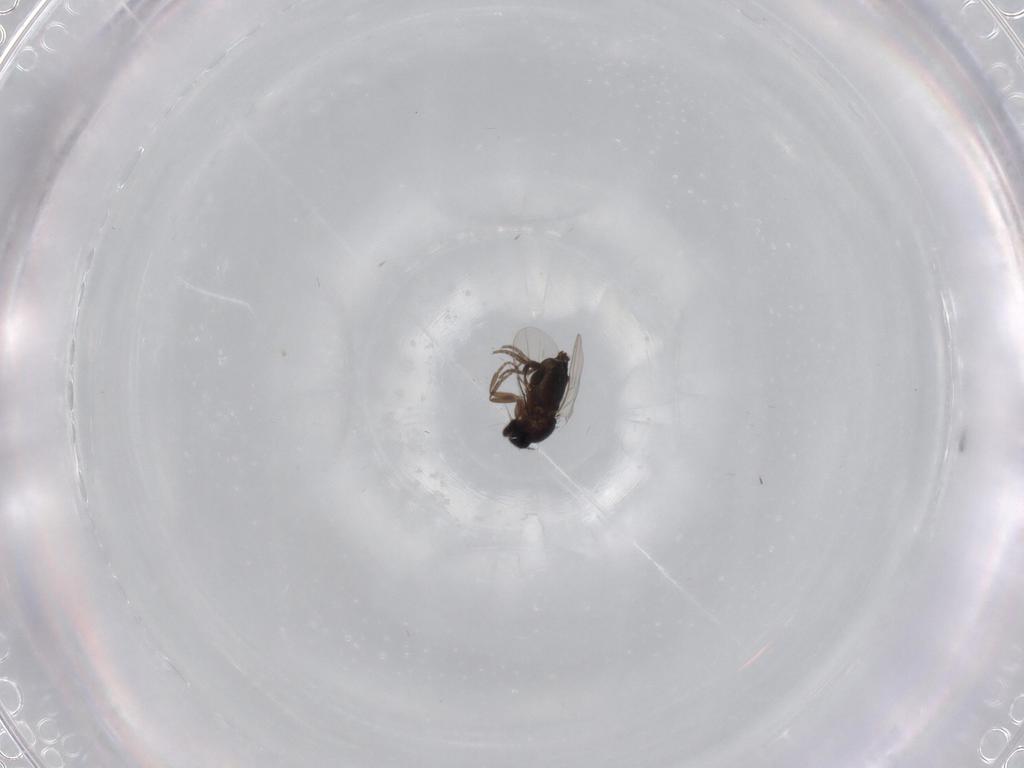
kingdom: Animalia
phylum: Arthropoda
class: Insecta
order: Diptera
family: Phoridae
